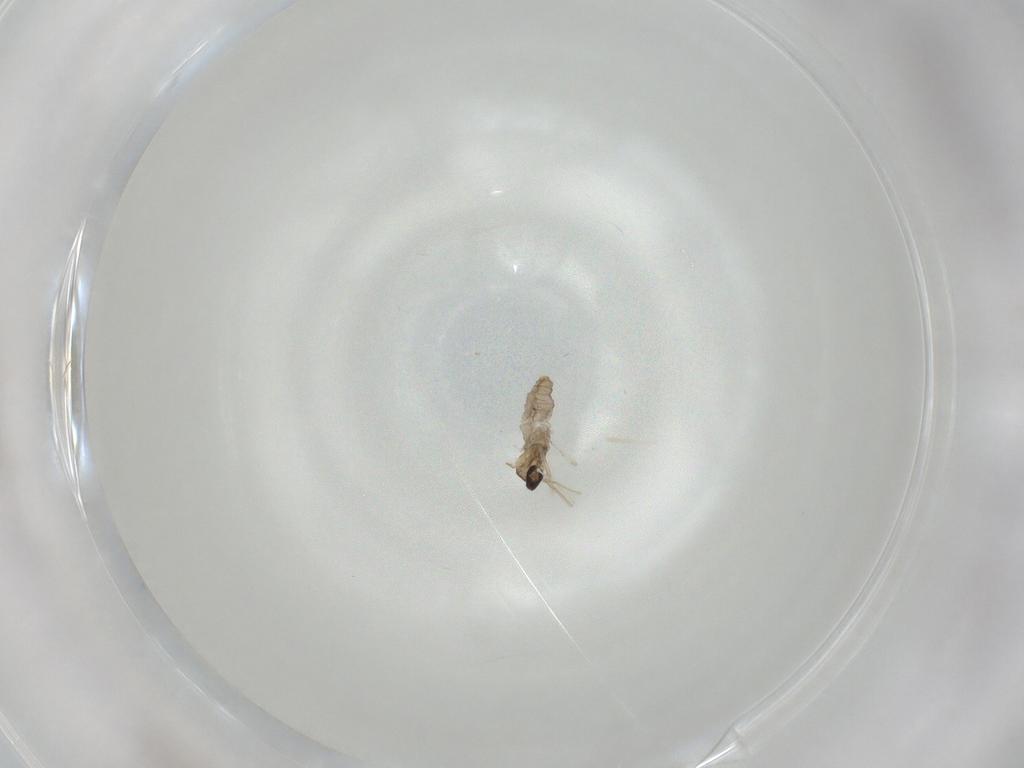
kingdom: Animalia
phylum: Arthropoda
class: Insecta
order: Diptera
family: Cecidomyiidae
